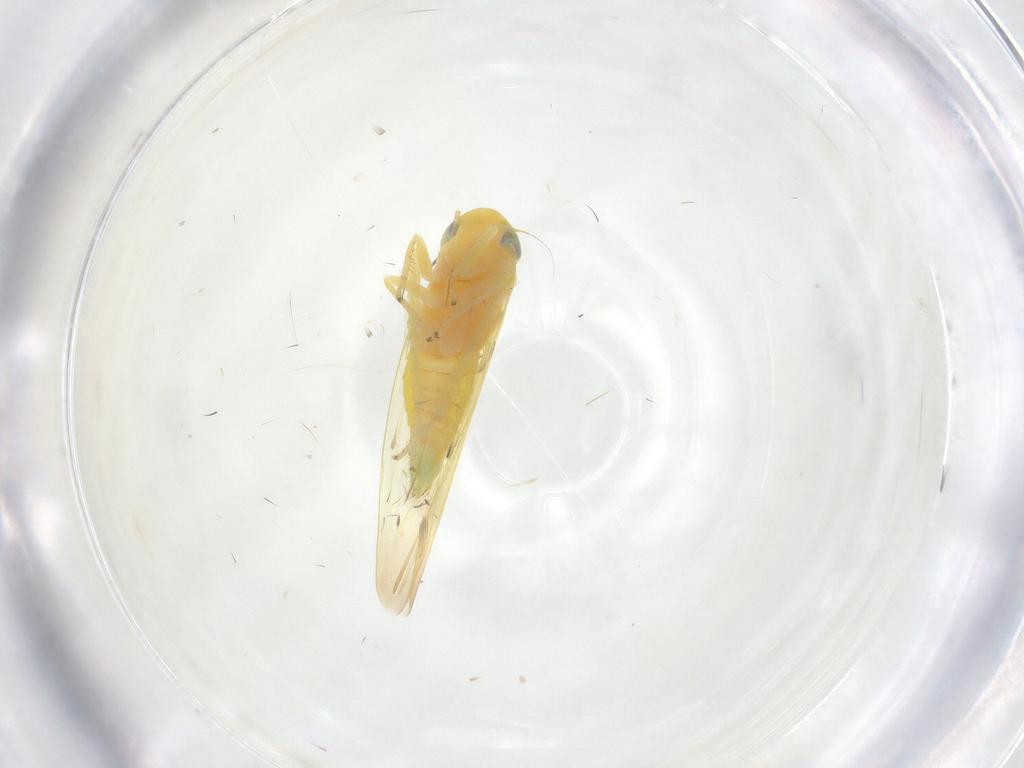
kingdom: Animalia
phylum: Arthropoda
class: Insecta
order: Hemiptera
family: Cicadellidae
